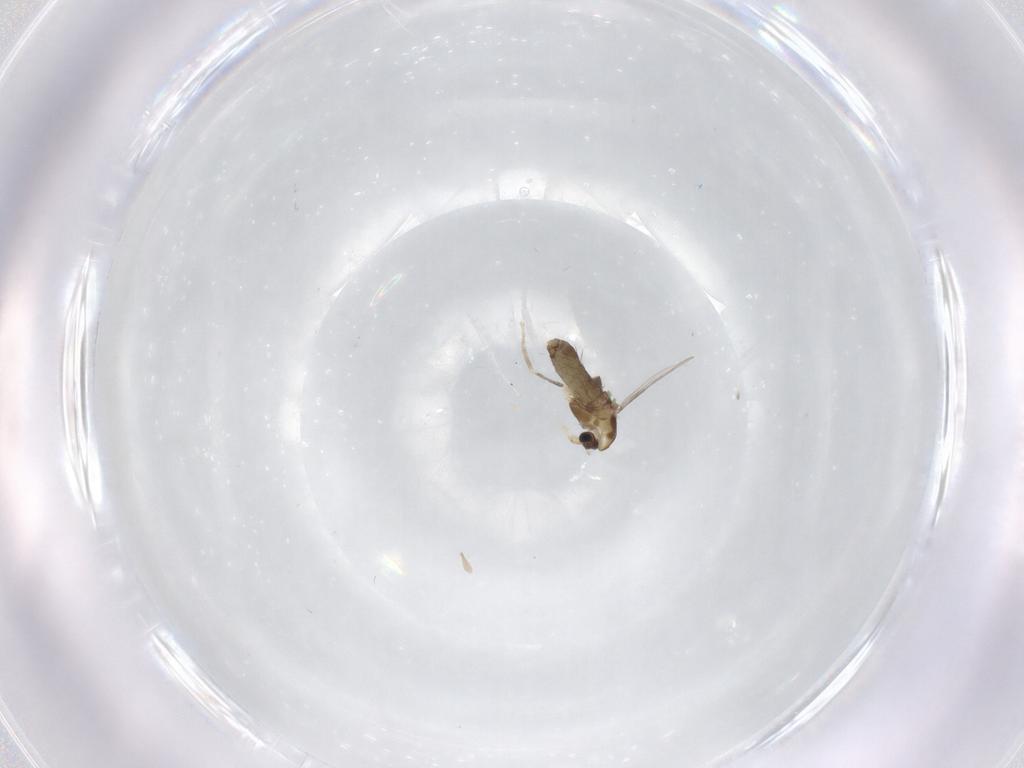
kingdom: Animalia
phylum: Arthropoda
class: Insecta
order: Diptera
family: Chironomidae
